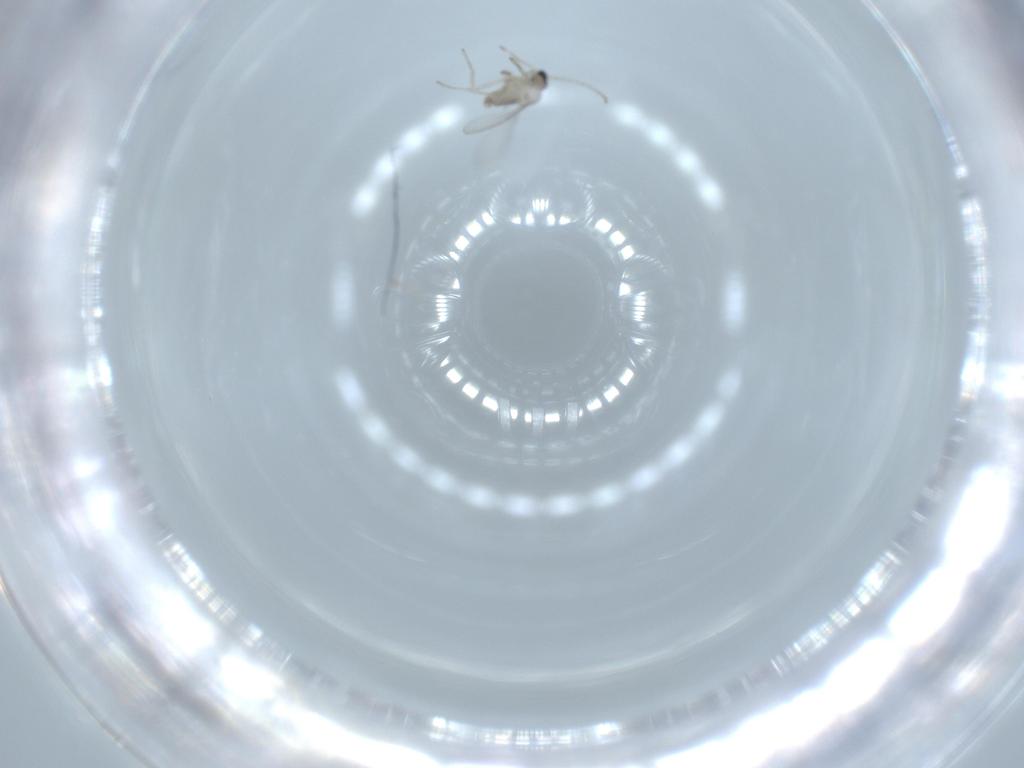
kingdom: Animalia
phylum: Arthropoda
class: Insecta
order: Diptera
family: Cecidomyiidae
